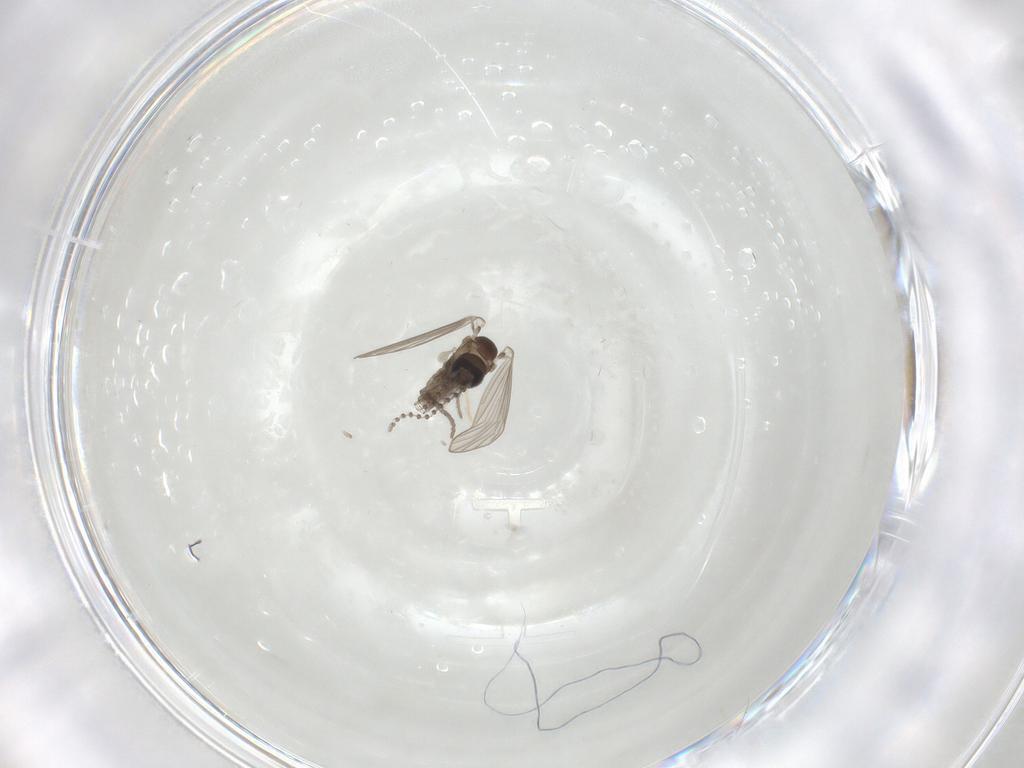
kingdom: Animalia
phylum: Arthropoda
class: Insecta
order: Diptera
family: Psychodidae
